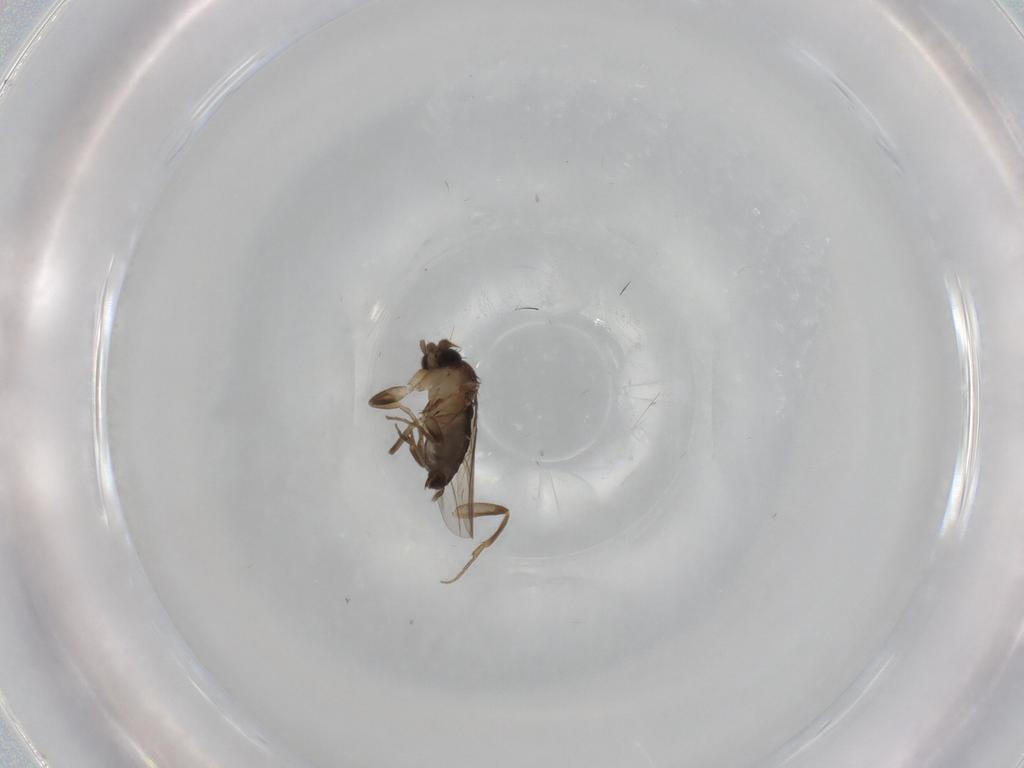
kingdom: Animalia
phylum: Arthropoda
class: Insecta
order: Diptera
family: Phoridae
